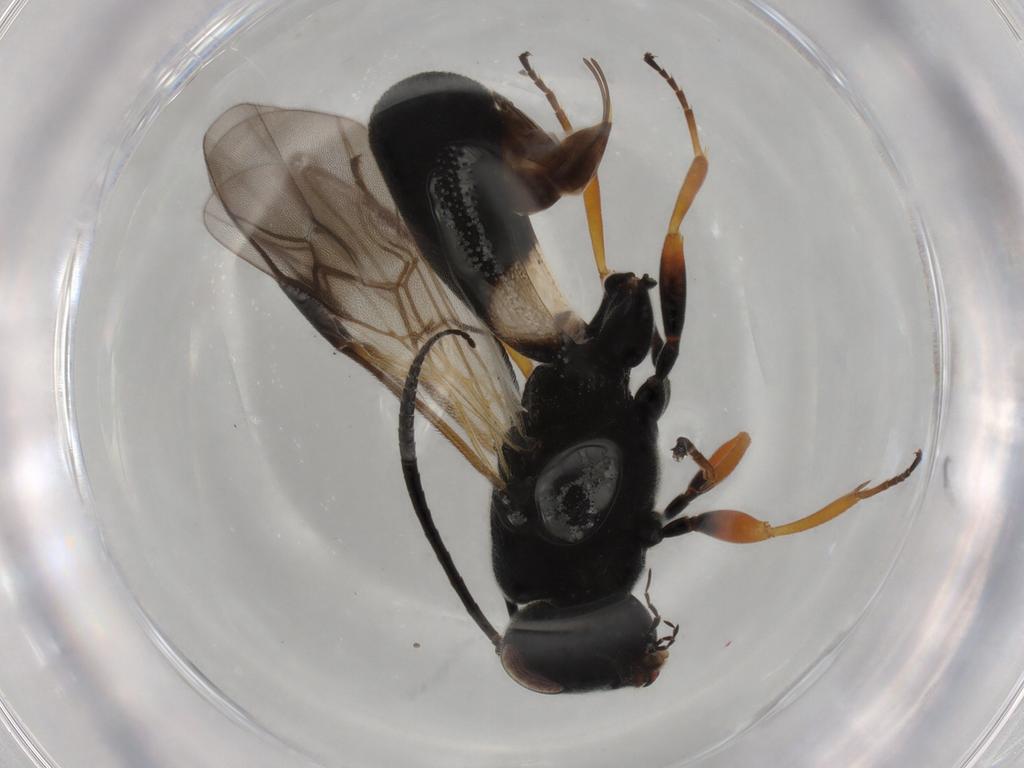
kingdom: Animalia
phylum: Arthropoda
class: Insecta
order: Hymenoptera
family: Braconidae
